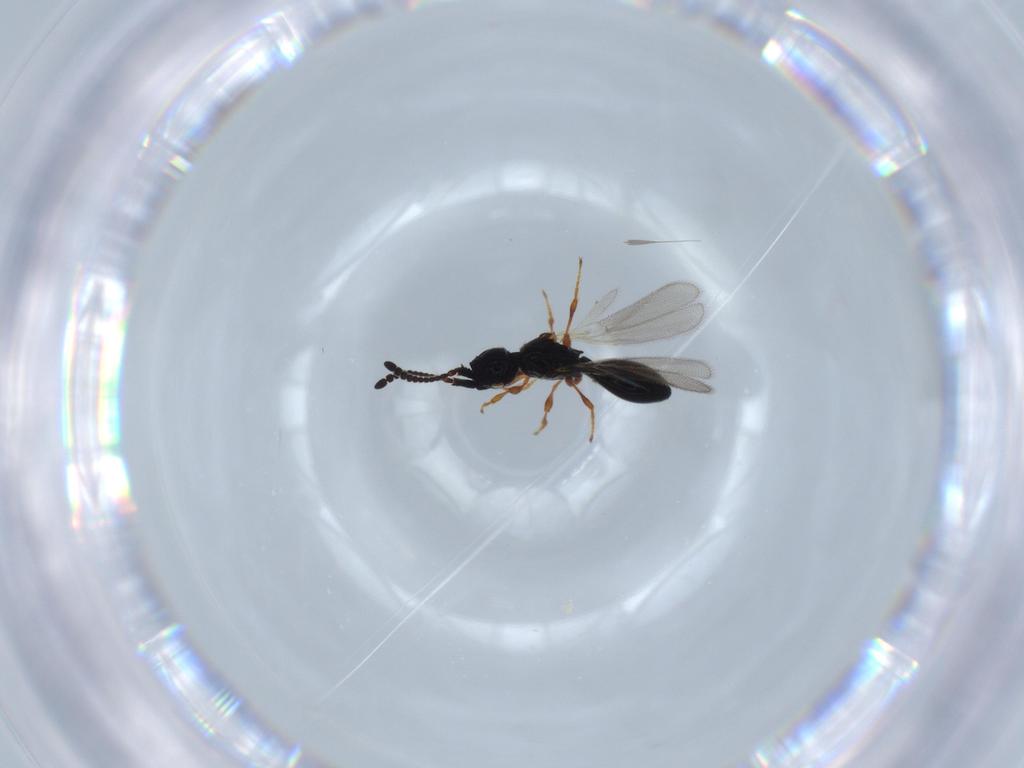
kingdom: Animalia
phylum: Arthropoda
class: Insecta
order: Hymenoptera
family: Diapriidae
